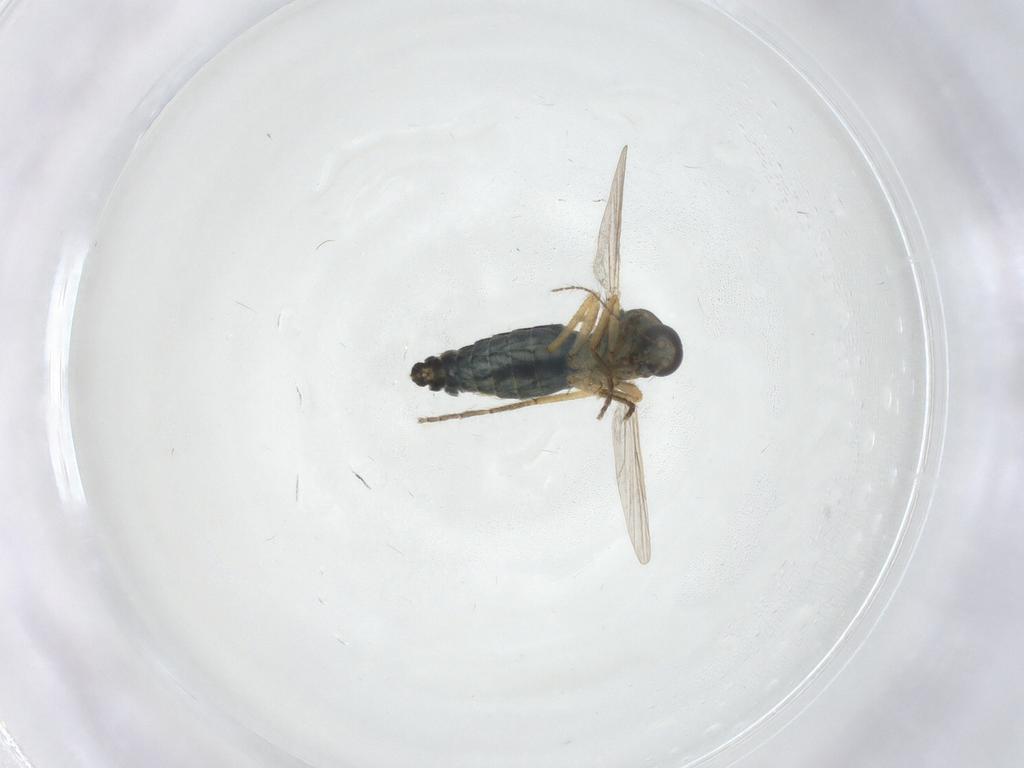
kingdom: Animalia
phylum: Arthropoda
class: Insecta
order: Diptera
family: Ceratopogonidae
